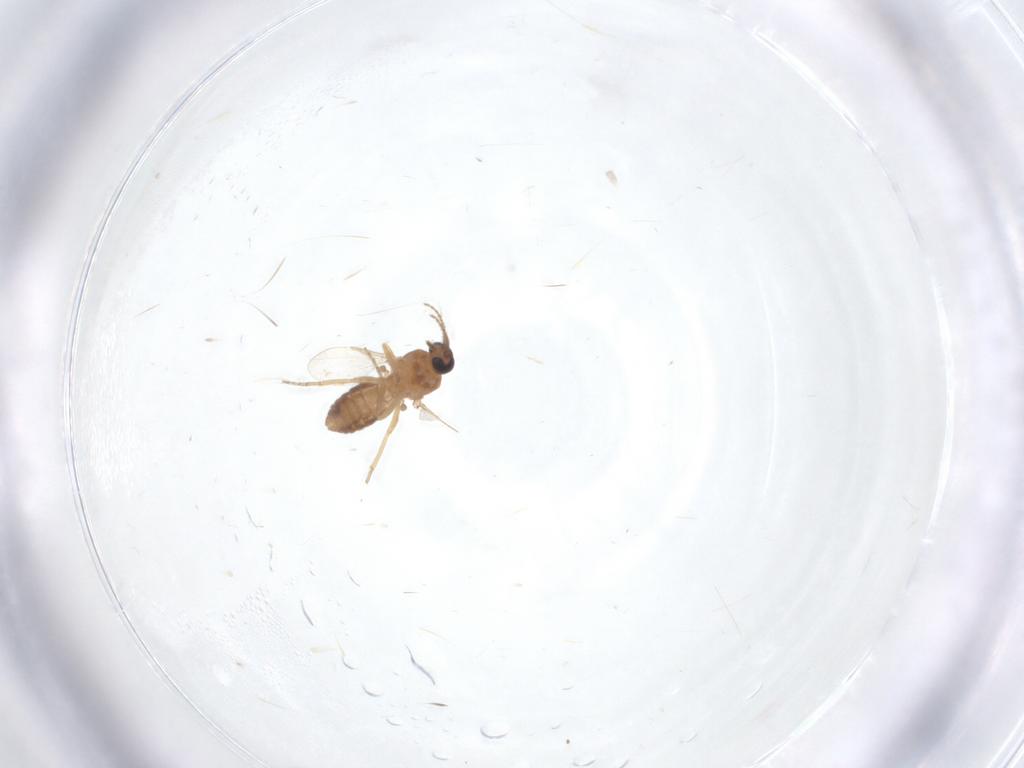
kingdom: Animalia
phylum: Arthropoda
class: Insecta
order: Diptera
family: Ceratopogonidae
